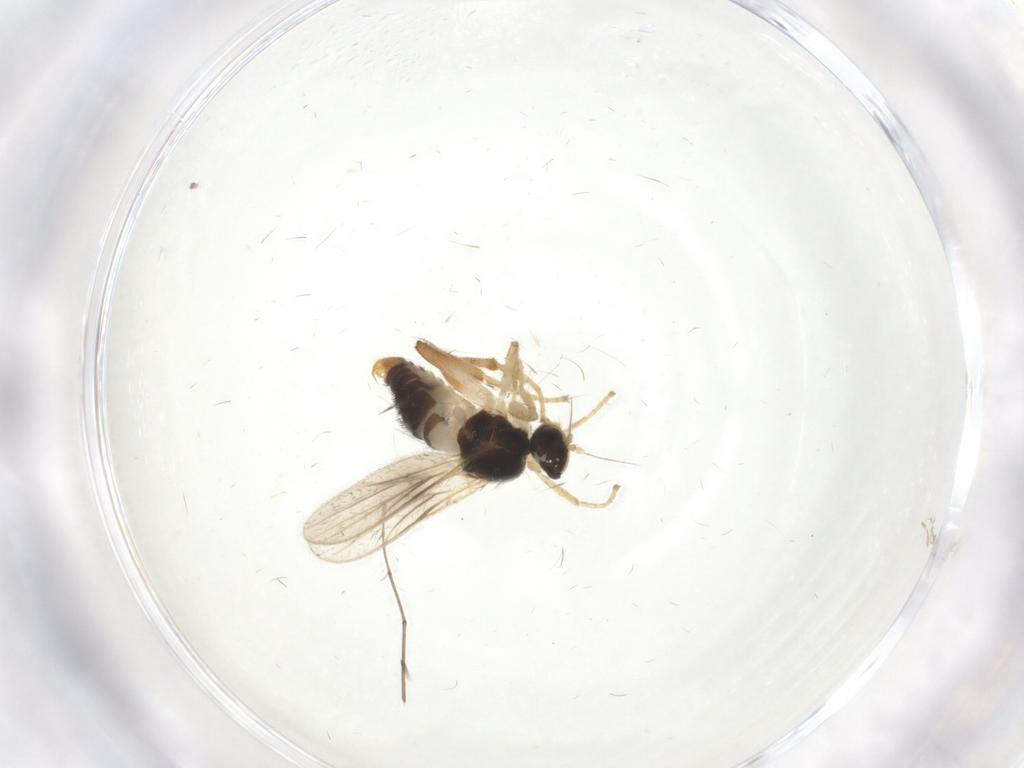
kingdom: Animalia
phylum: Arthropoda
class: Insecta
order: Diptera
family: Hybotidae
